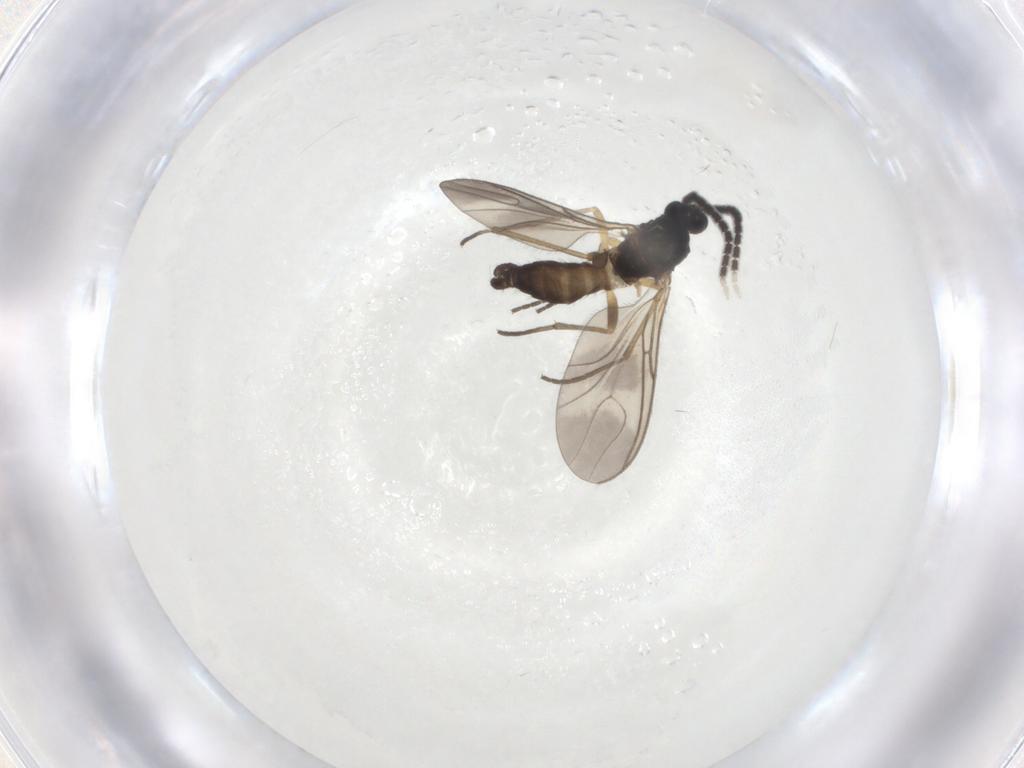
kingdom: Animalia
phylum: Arthropoda
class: Insecta
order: Diptera
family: Sciaridae
